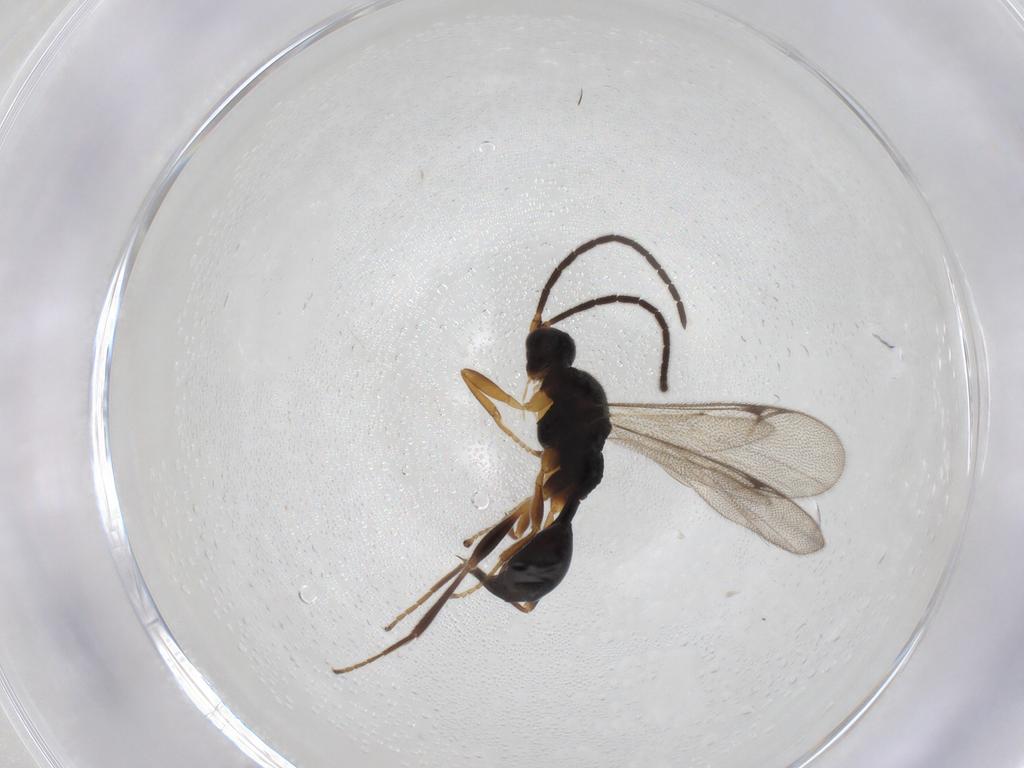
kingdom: Animalia
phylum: Arthropoda
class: Insecta
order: Hymenoptera
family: Proctotrupidae
